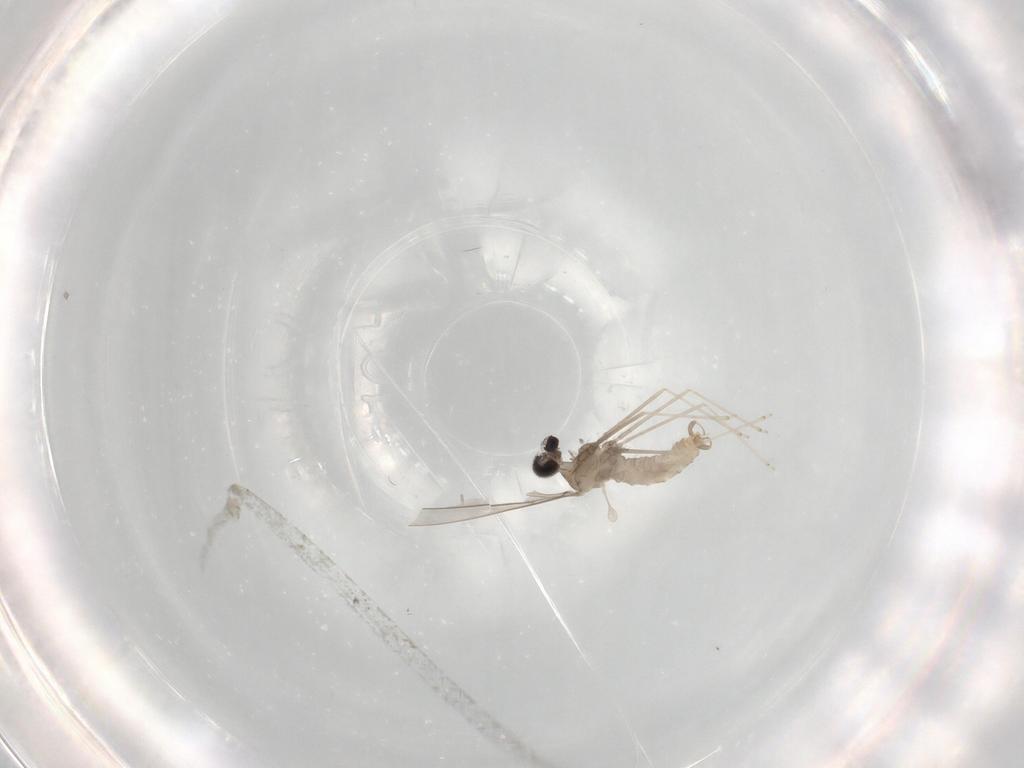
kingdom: Animalia
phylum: Arthropoda
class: Insecta
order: Diptera
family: Cecidomyiidae
